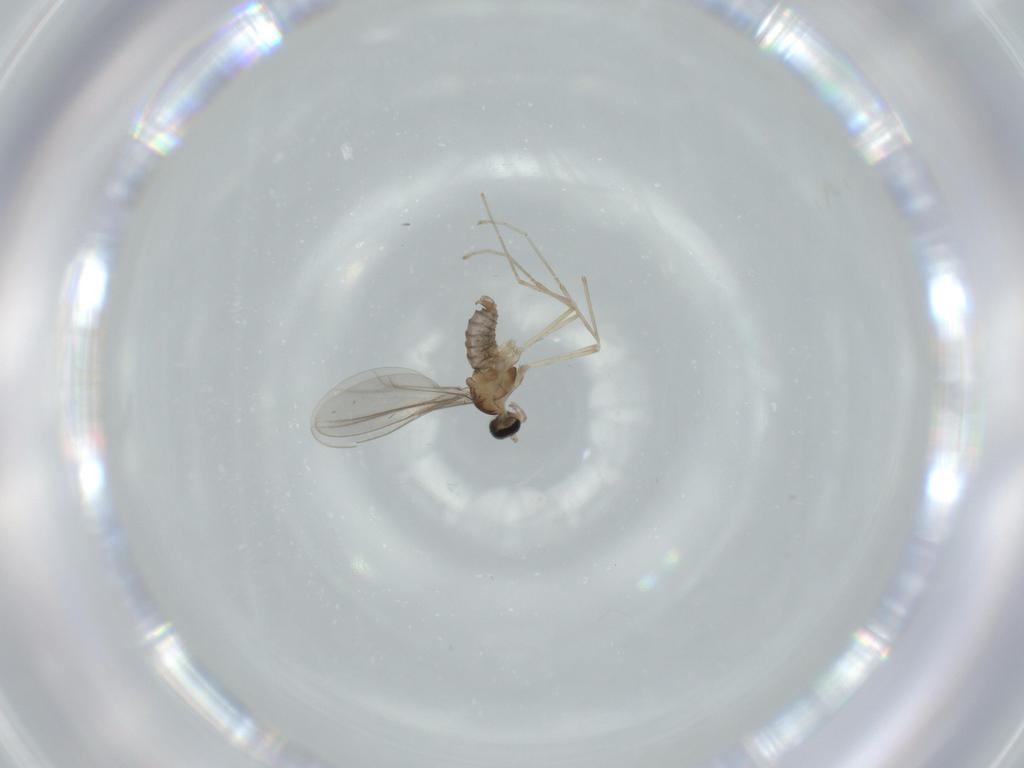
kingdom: Animalia
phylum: Arthropoda
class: Insecta
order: Diptera
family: Cecidomyiidae
